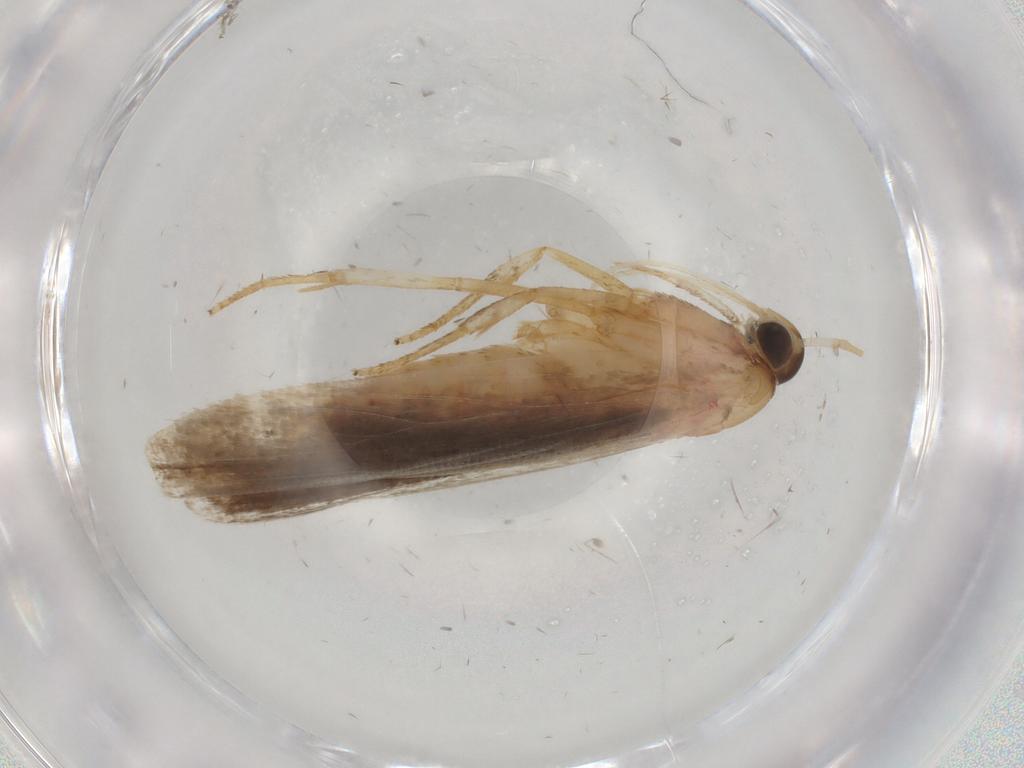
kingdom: Animalia
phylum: Arthropoda
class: Insecta
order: Lepidoptera
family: Autostichidae
